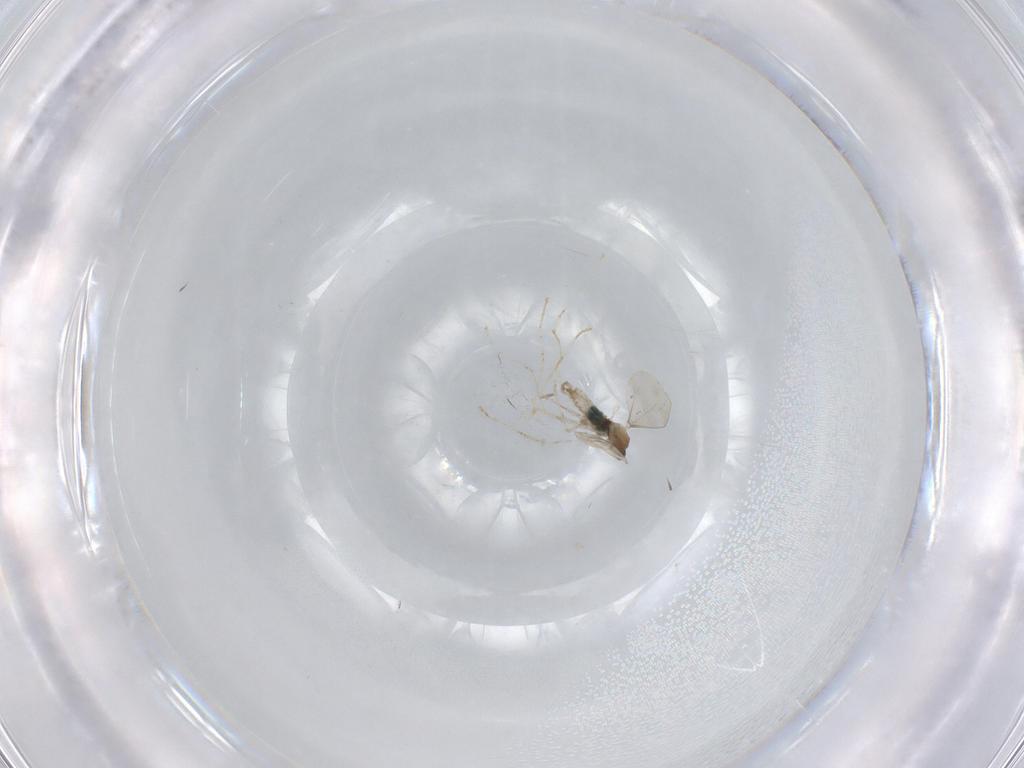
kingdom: Animalia
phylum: Arthropoda
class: Insecta
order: Diptera
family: Cecidomyiidae
